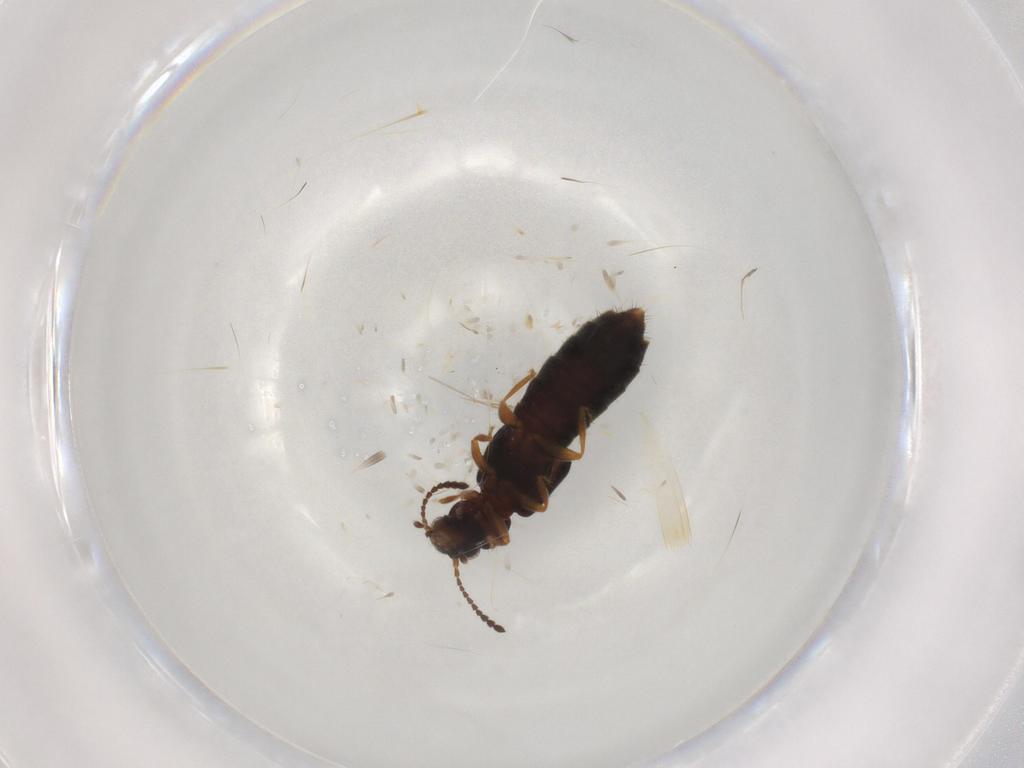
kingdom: Animalia
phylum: Arthropoda
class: Insecta
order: Coleoptera
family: Staphylinidae
